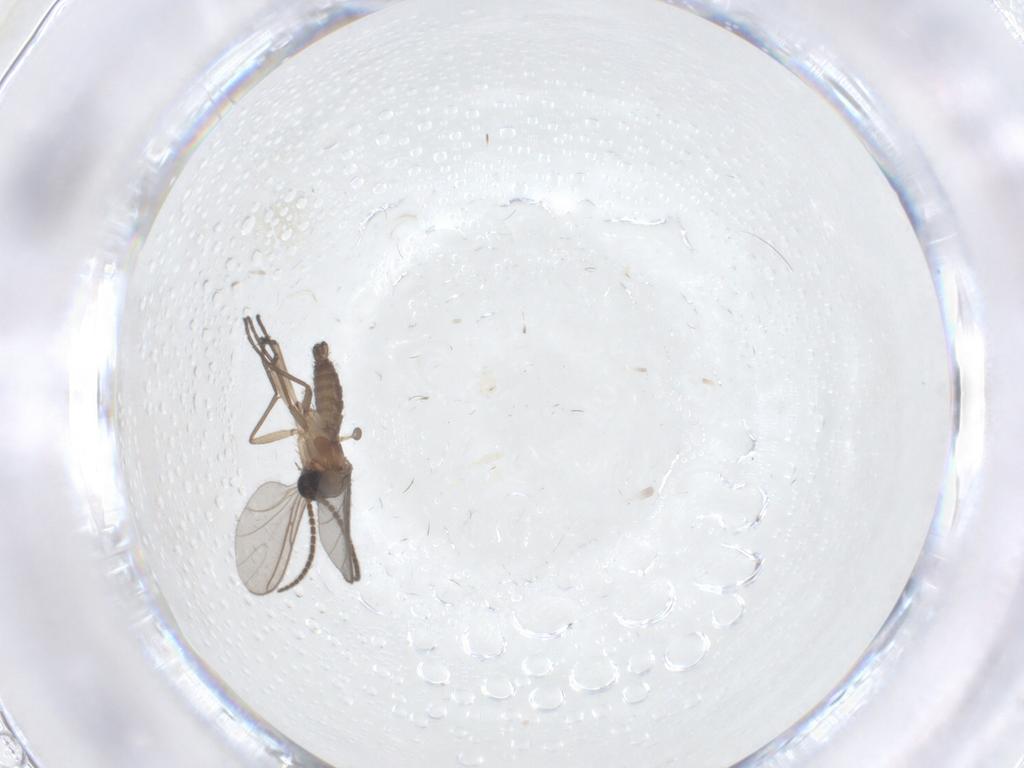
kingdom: Animalia
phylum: Arthropoda
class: Insecta
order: Diptera
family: Sciaridae
